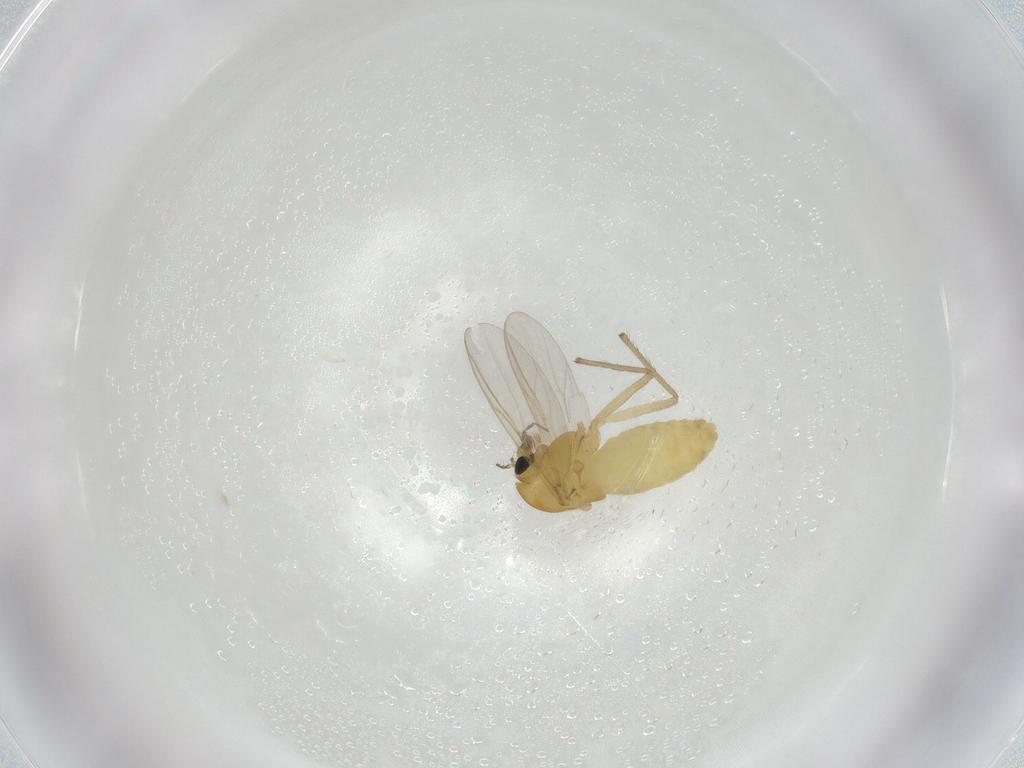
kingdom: Animalia
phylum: Arthropoda
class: Insecta
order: Diptera
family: Chironomidae
